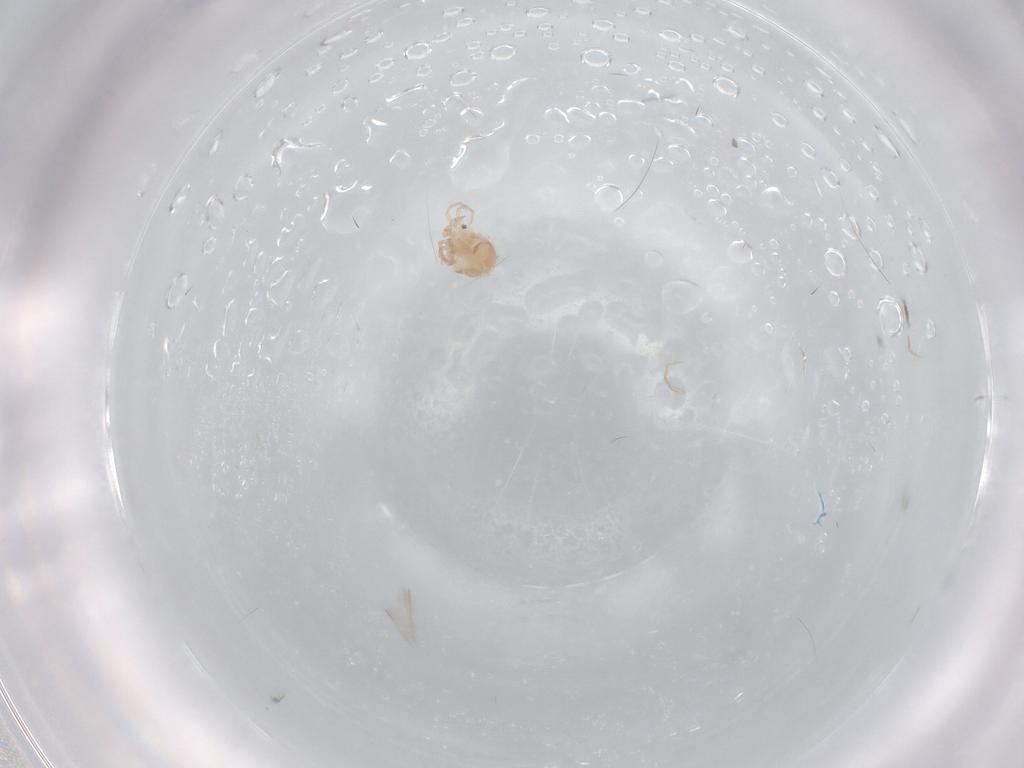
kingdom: Animalia
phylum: Arthropoda
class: Arachnida
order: Trombidiformes
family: Lebertiidae
